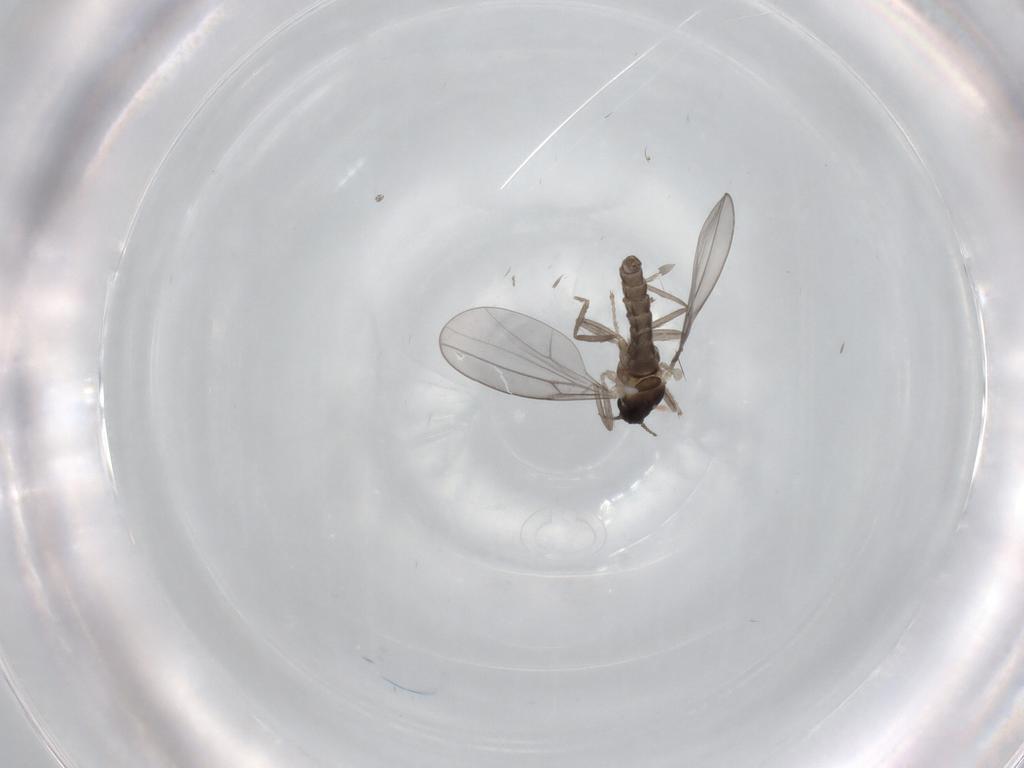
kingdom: Animalia
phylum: Arthropoda
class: Insecta
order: Diptera
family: Cecidomyiidae
